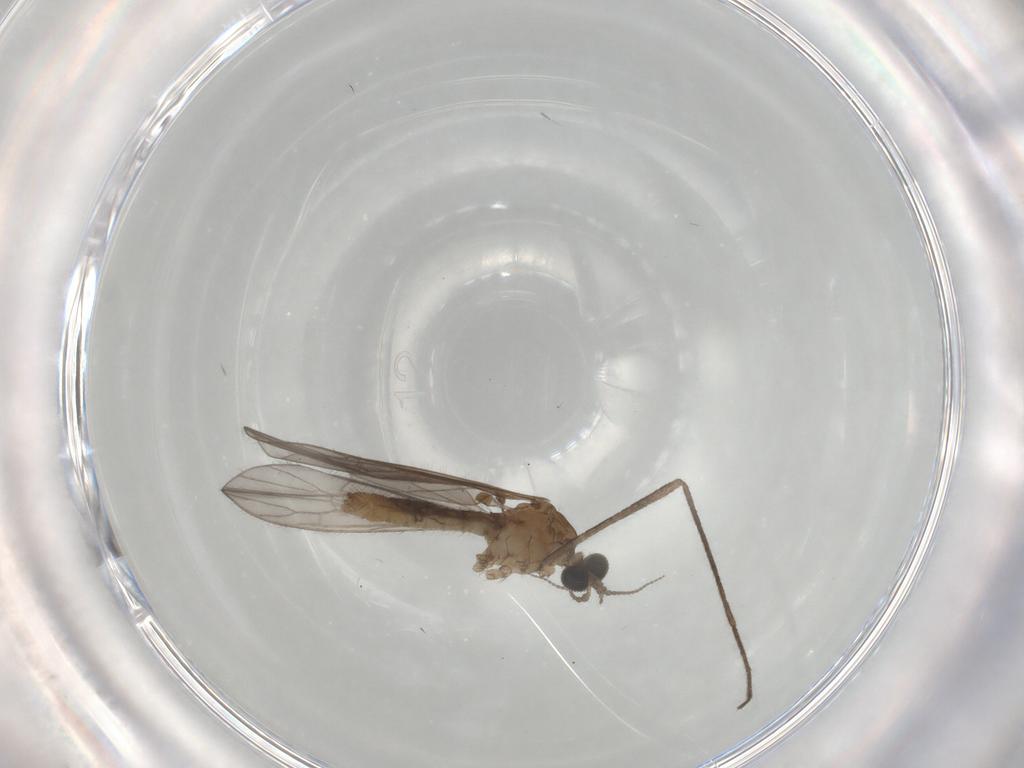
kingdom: Animalia
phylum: Arthropoda
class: Insecta
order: Diptera
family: Limoniidae
